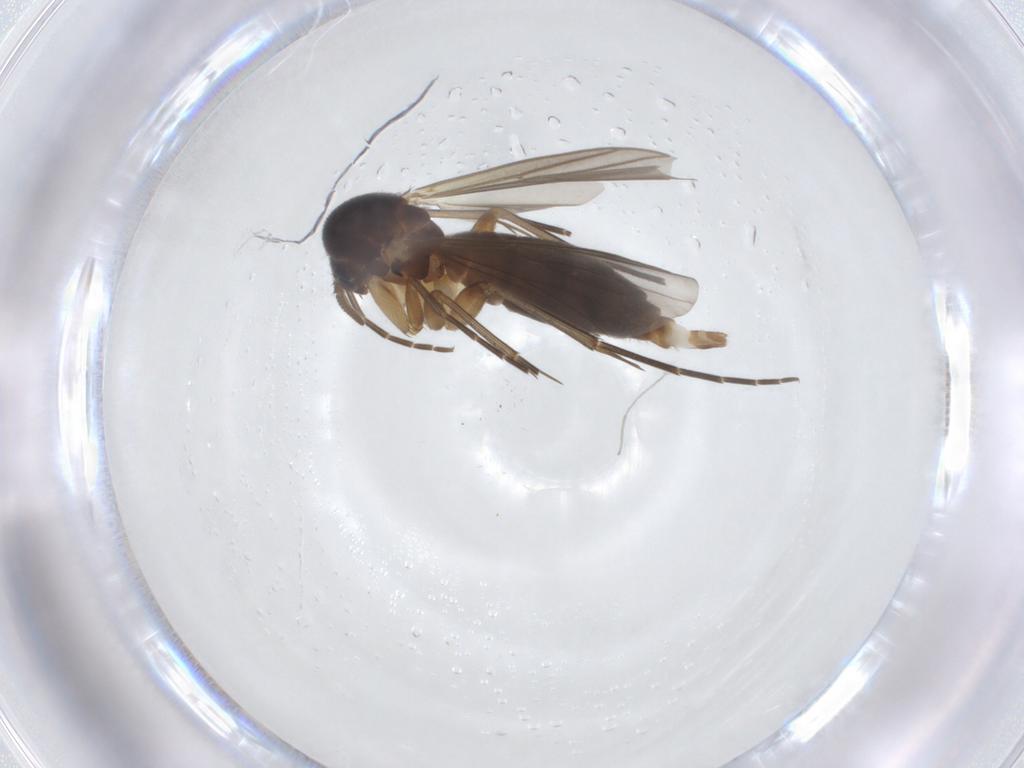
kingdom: Animalia
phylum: Arthropoda
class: Insecta
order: Diptera
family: Mycetophilidae
